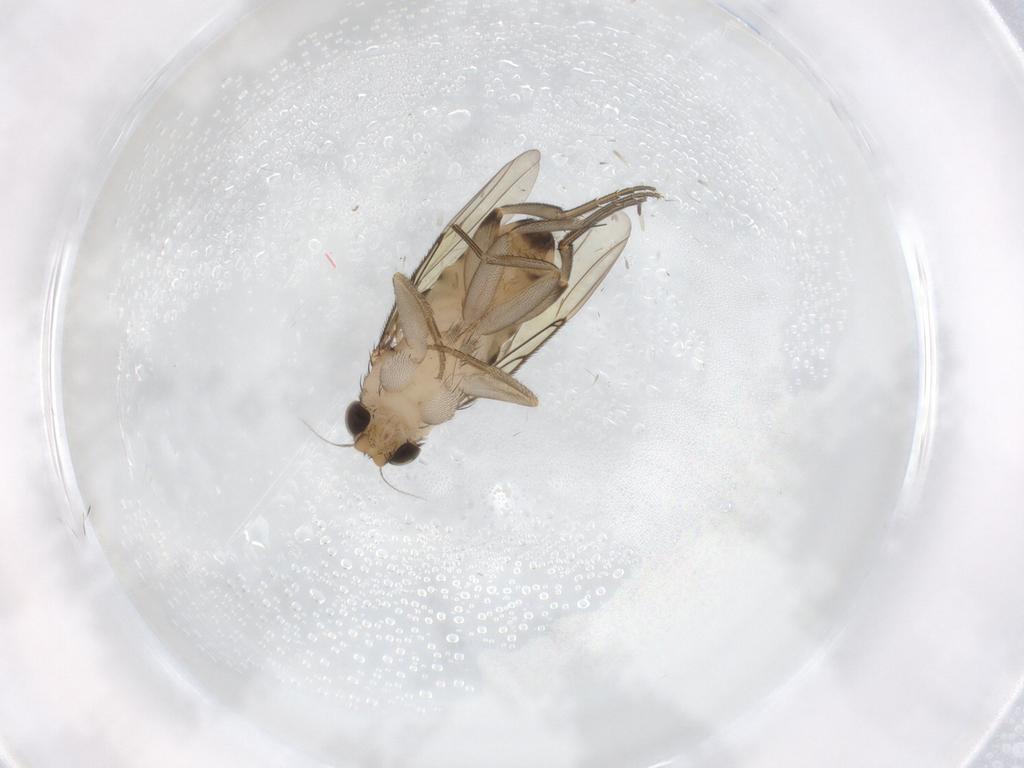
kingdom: Animalia
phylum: Arthropoda
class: Insecta
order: Diptera
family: Phoridae
